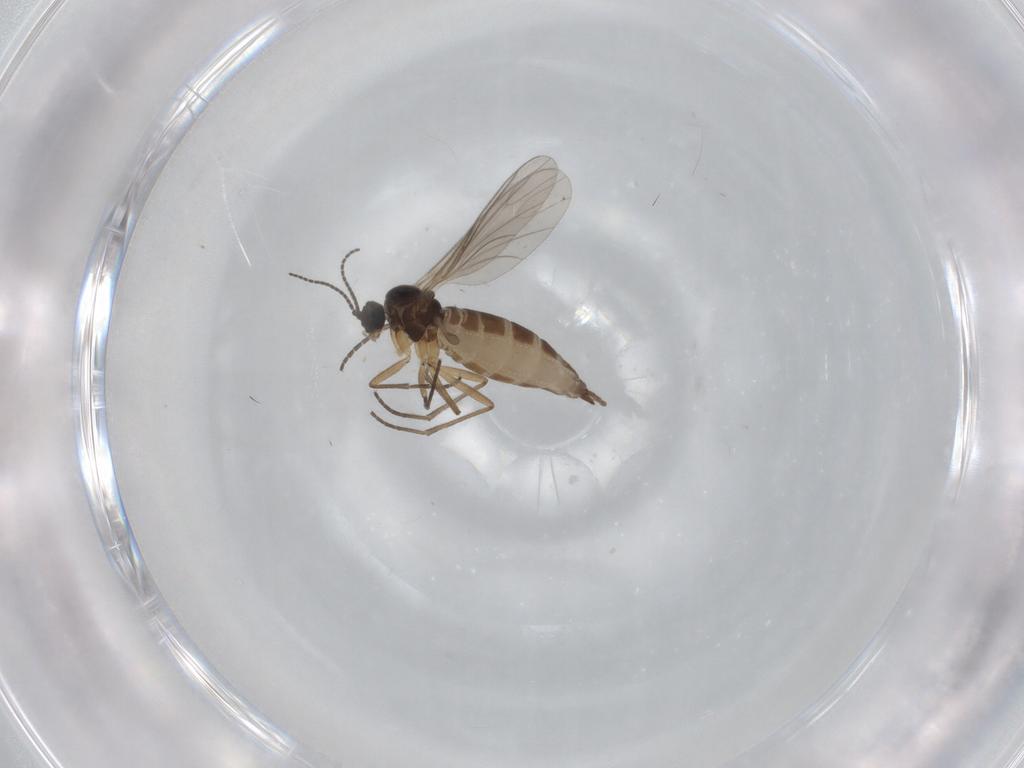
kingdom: Animalia
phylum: Arthropoda
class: Insecta
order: Diptera
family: Sciaridae
